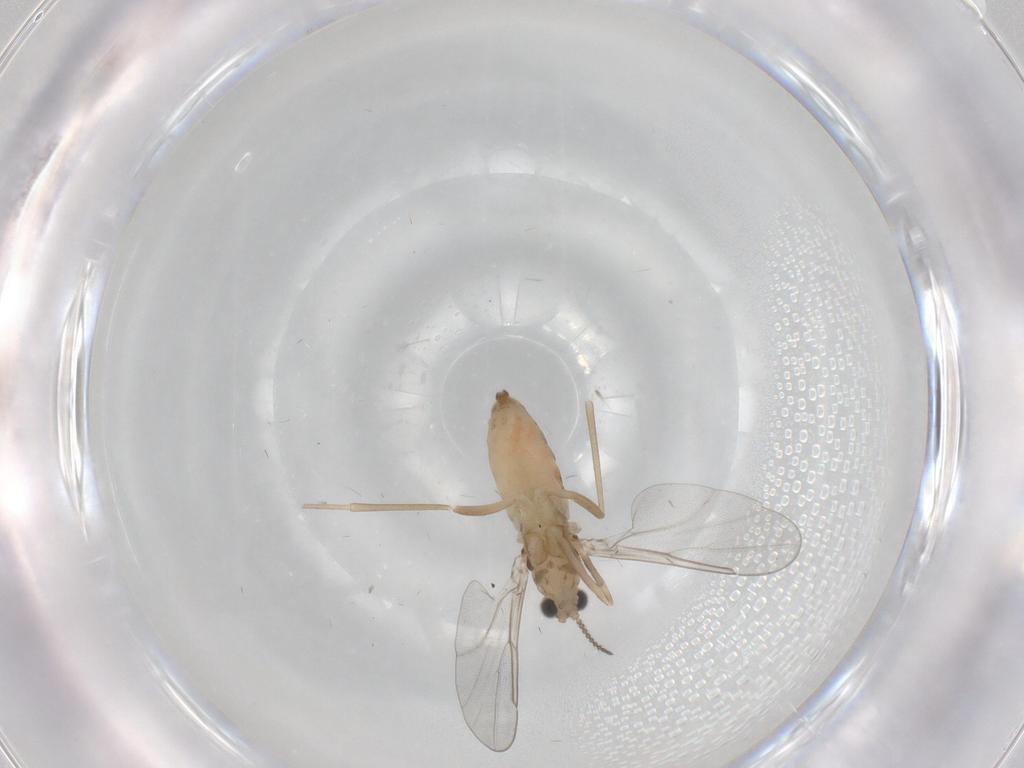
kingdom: Animalia
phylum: Arthropoda
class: Insecta
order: Diptera
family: Cecidomyiidae
